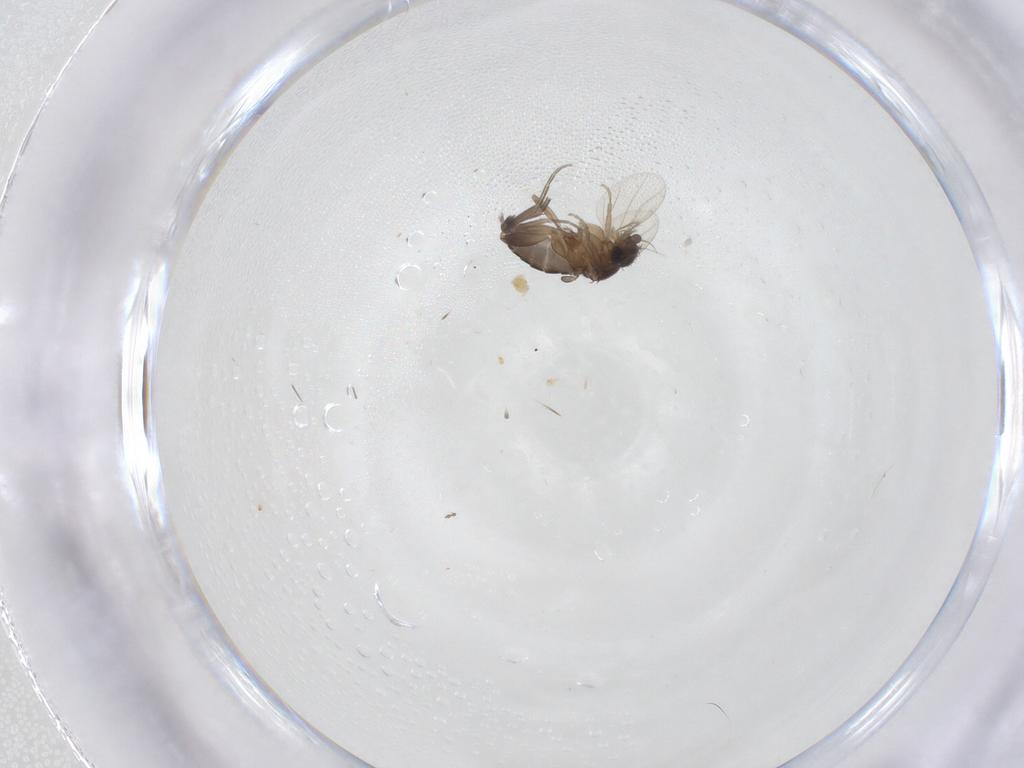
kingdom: Animalia
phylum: Arthropoda
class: Insecta
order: Diptera
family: Phoridae
